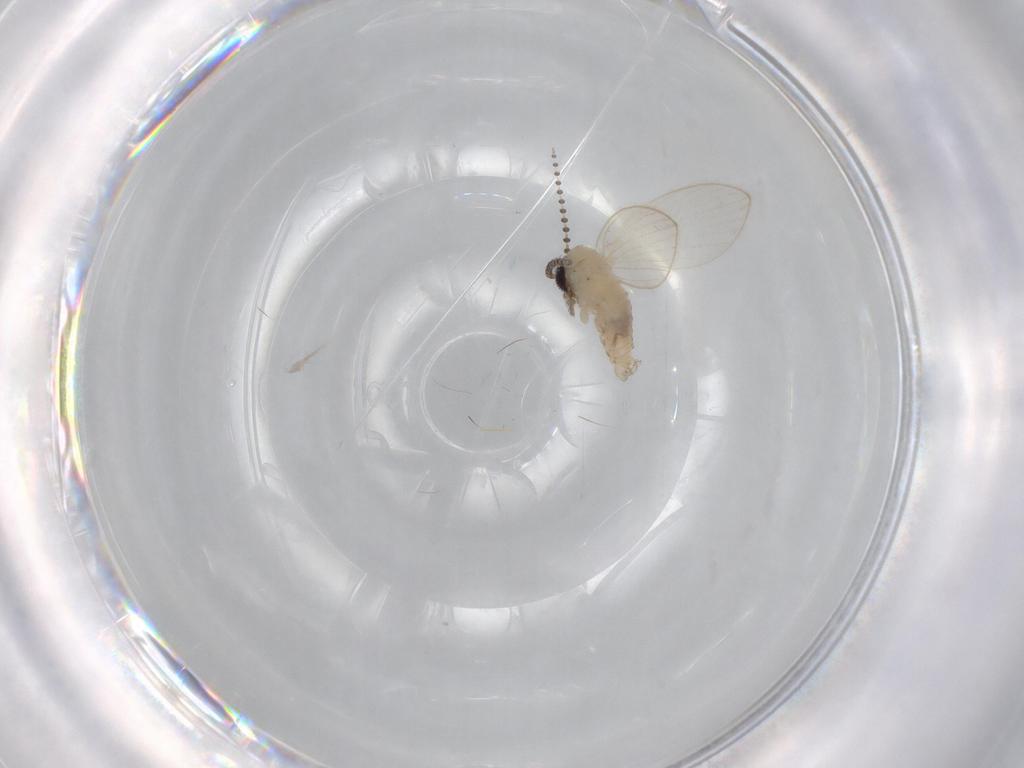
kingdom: Animalia
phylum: Arthropoda
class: Insecta
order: Diptera
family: Psychodidae
